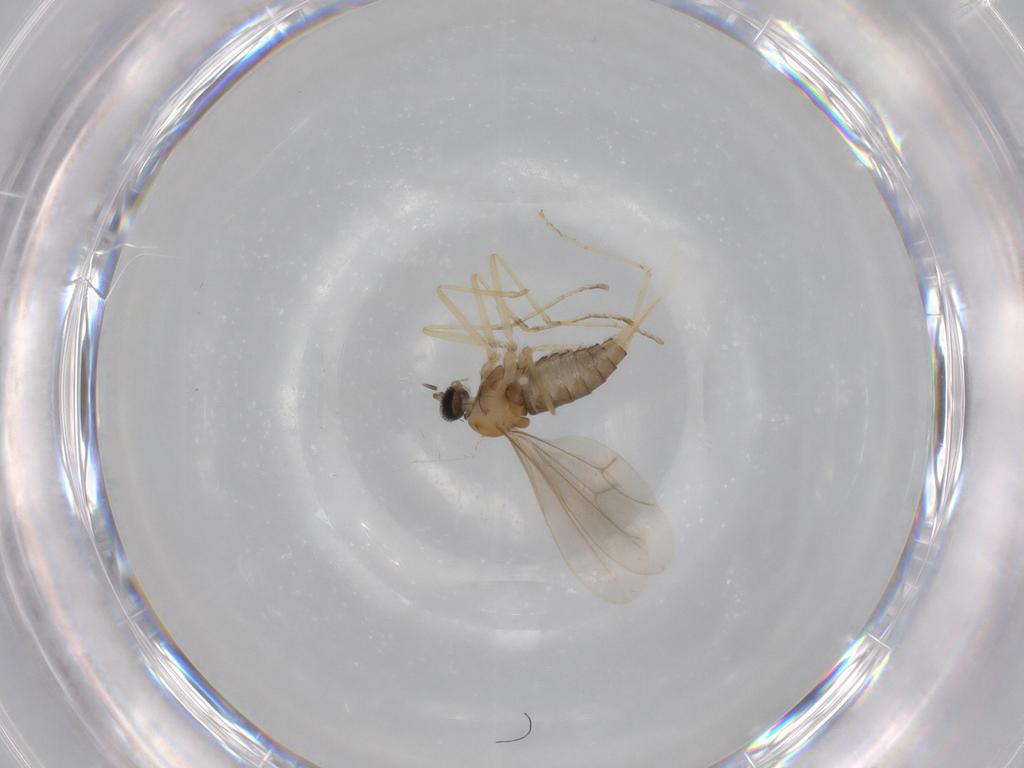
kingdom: Animalia
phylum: Arthropoda
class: Insecta
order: Diptera
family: Cecidomyiidae
